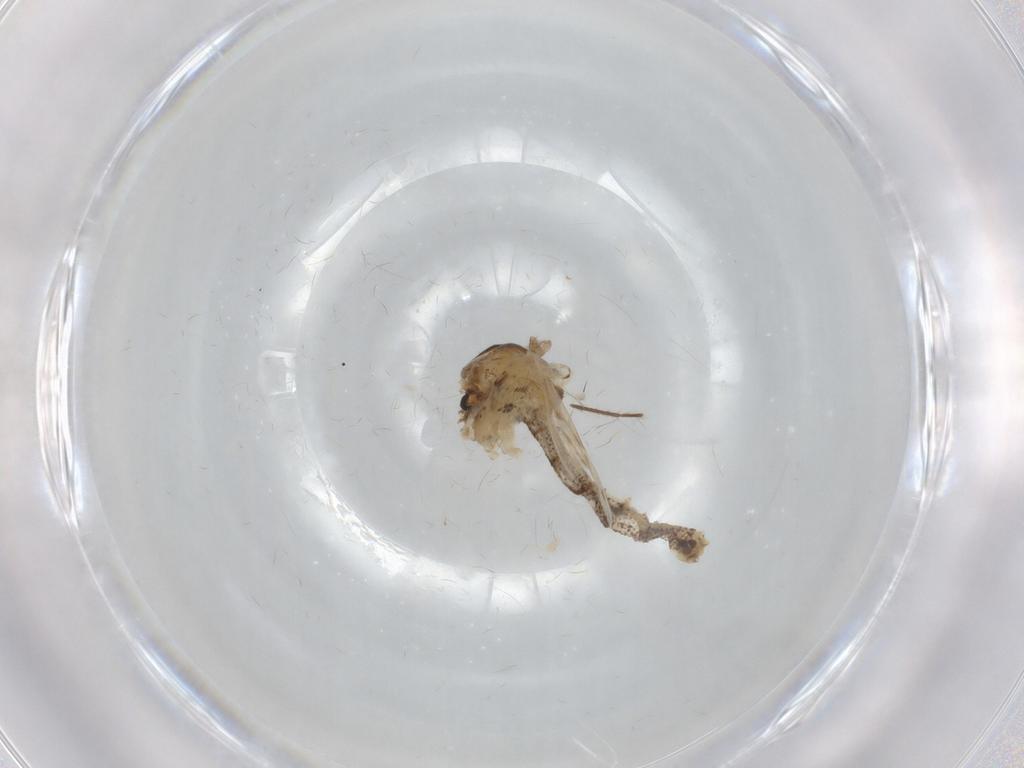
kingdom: Animalia
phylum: Arthropoda
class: Insecta
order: Diptera
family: Chaoboridae
